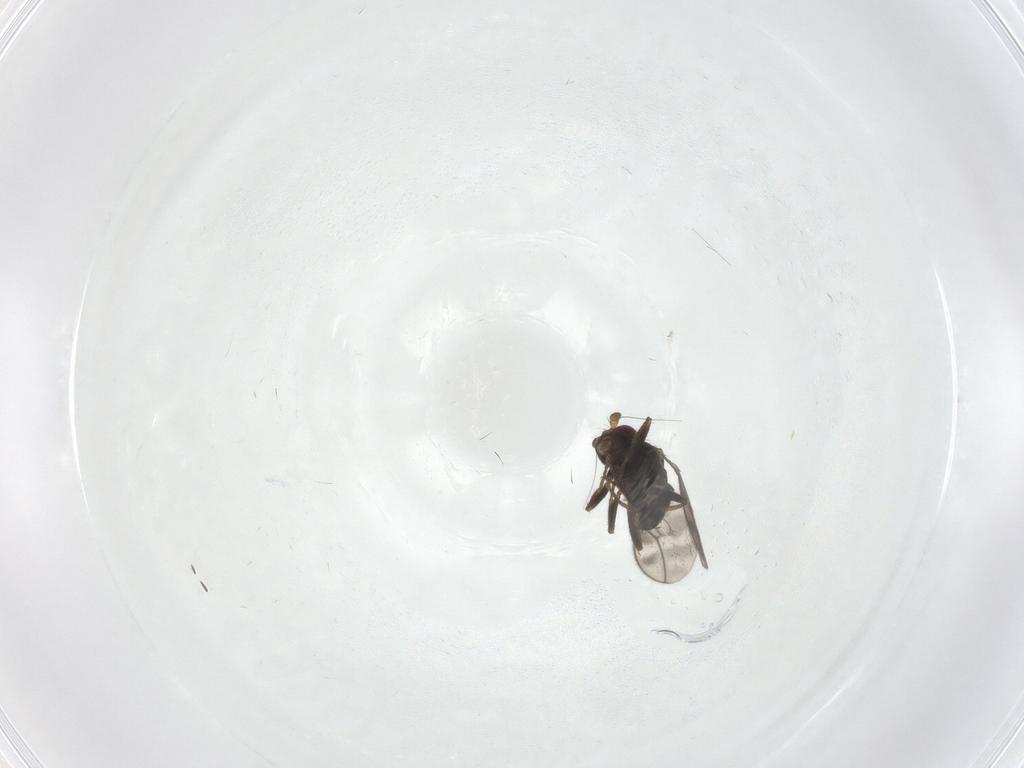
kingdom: Animalia
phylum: Arthropoda
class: Insecta
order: Diptera
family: Sphaeroceridae
